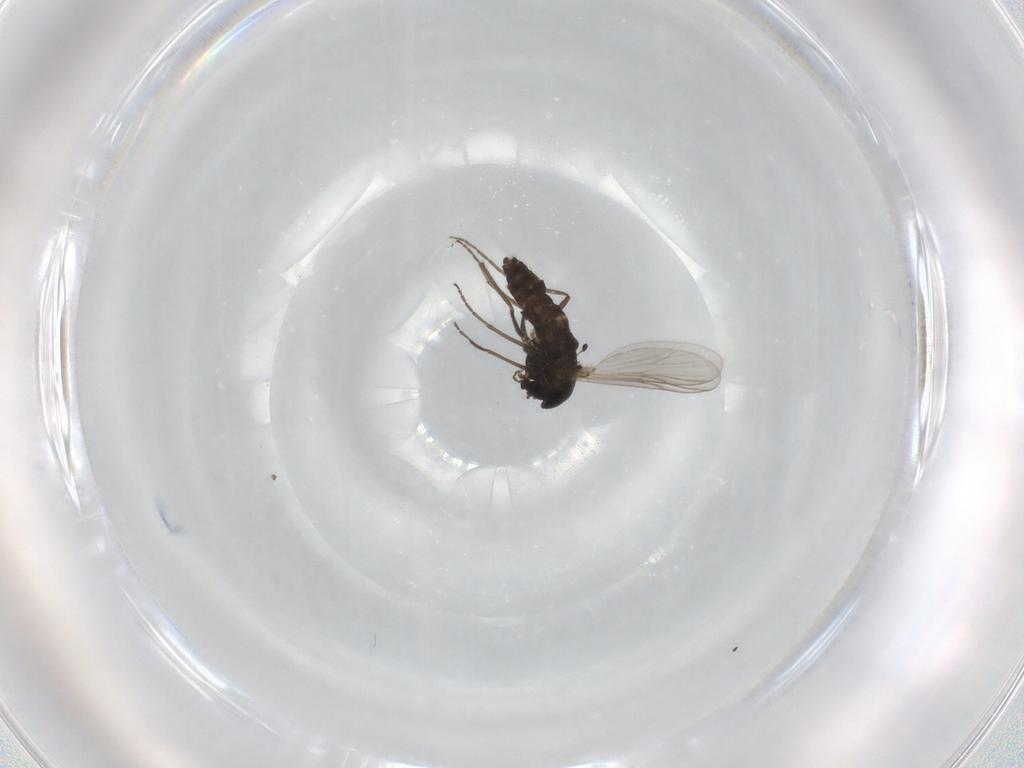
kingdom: Animalia
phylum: Arthropoda
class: Insecta
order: Diptera
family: Chironomidae
